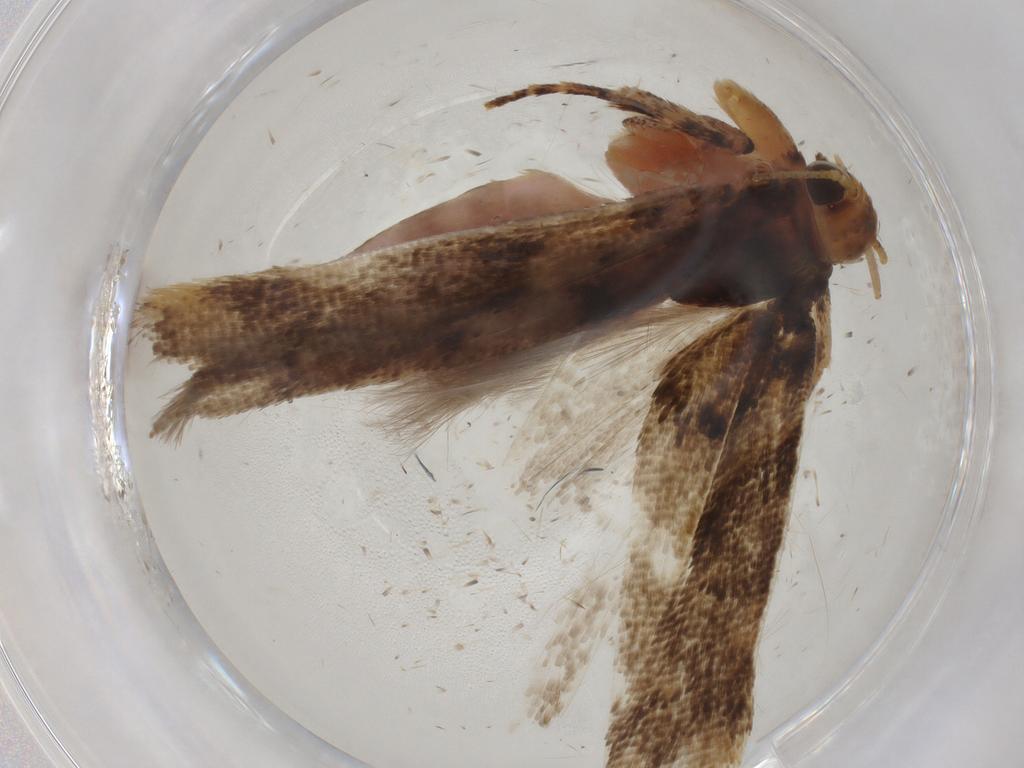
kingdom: Animalia
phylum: Arthropoda
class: Insecta
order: Lepidoptera
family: Gelechiidae
